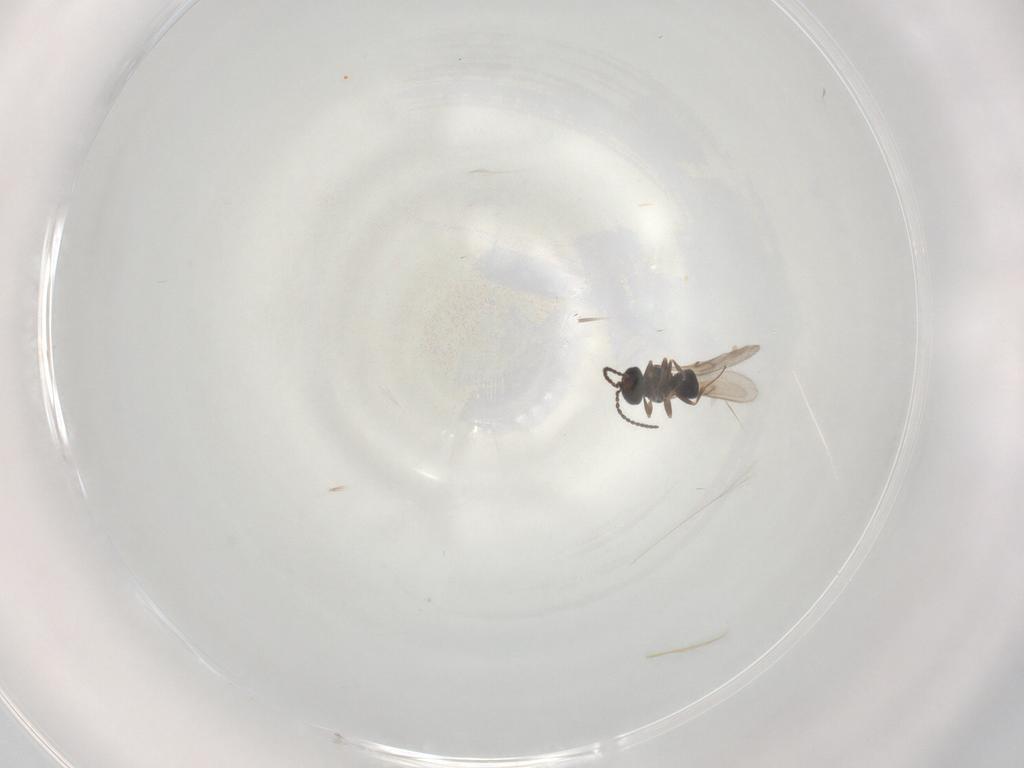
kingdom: Animalia
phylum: Arthropoda
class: Insecta
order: Hymenoptera
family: Scelionidae
